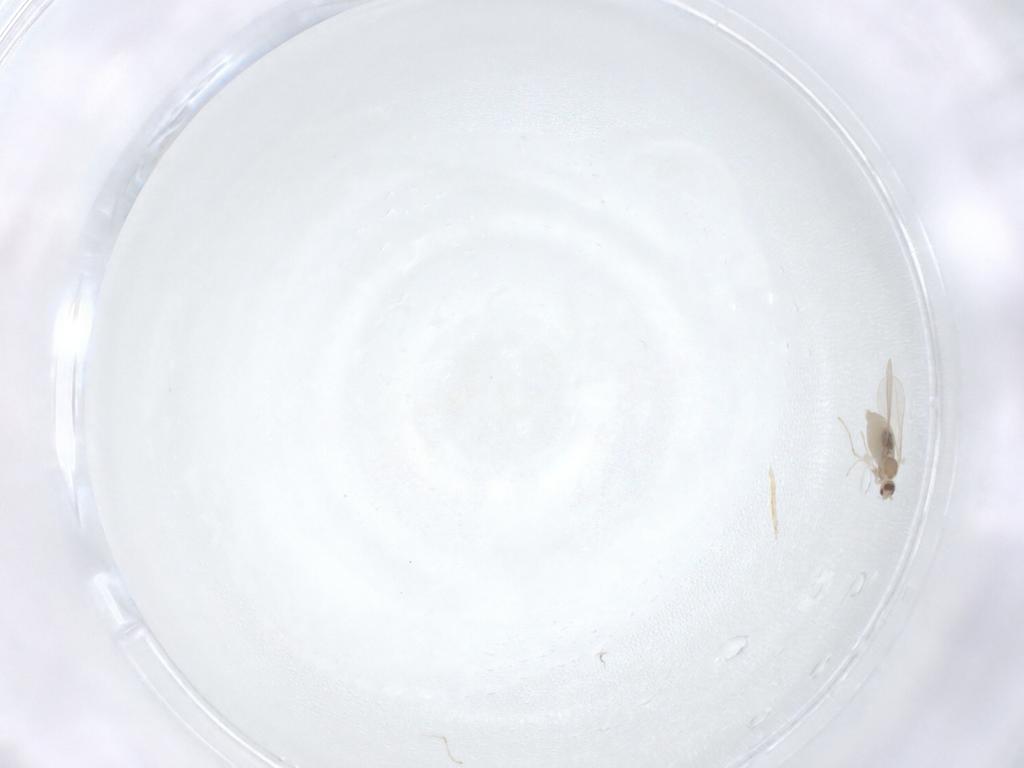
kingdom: Animalia
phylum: Arthropoda
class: Insecta
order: Diptera
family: Cecidomyiidae
